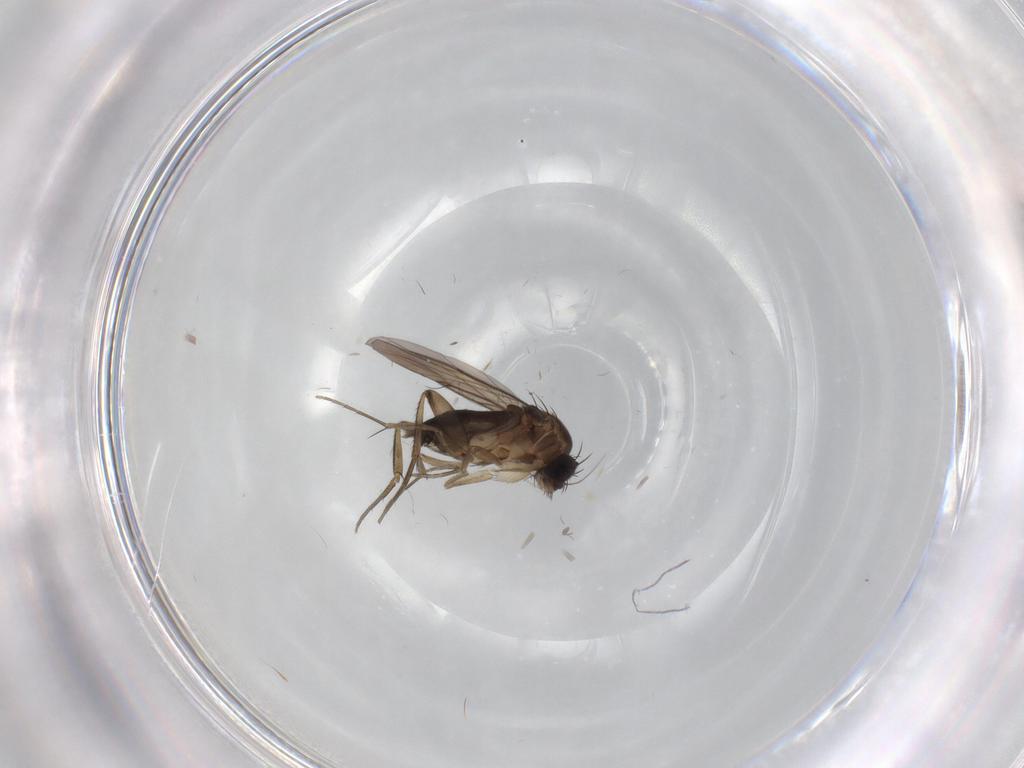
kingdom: Animalia
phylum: Arthropoda
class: Insecta
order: Diptera
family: Phoridae
